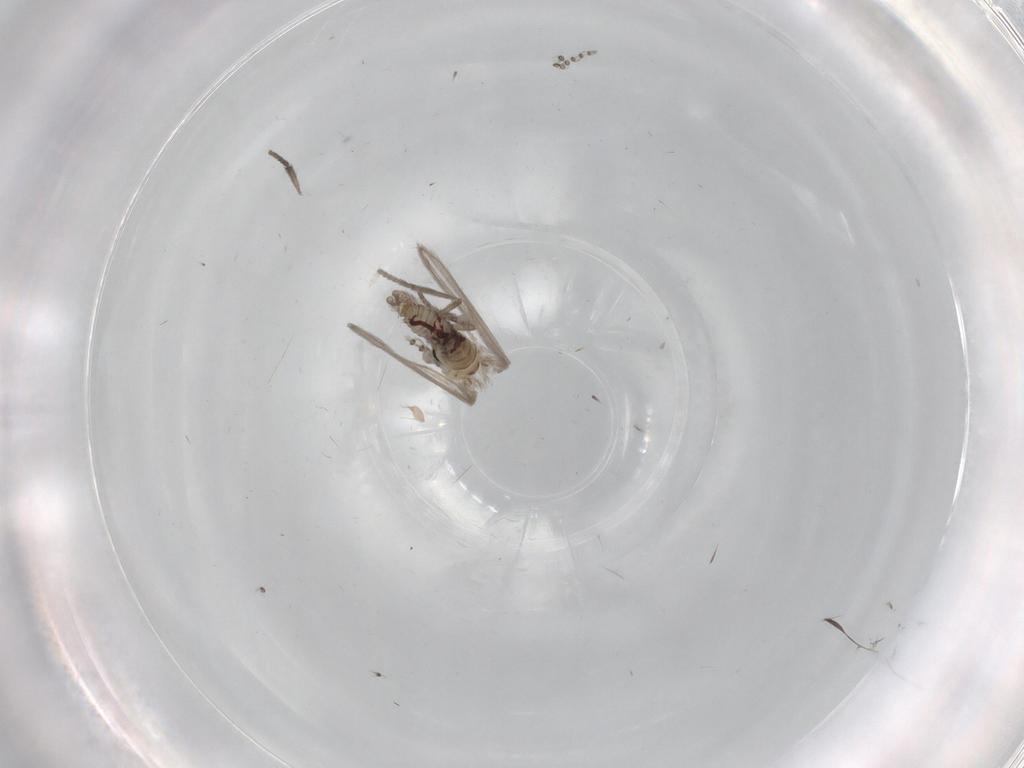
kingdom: Animalia
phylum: Arthropoda
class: Insecta
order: Diptera
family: Psychodidae
